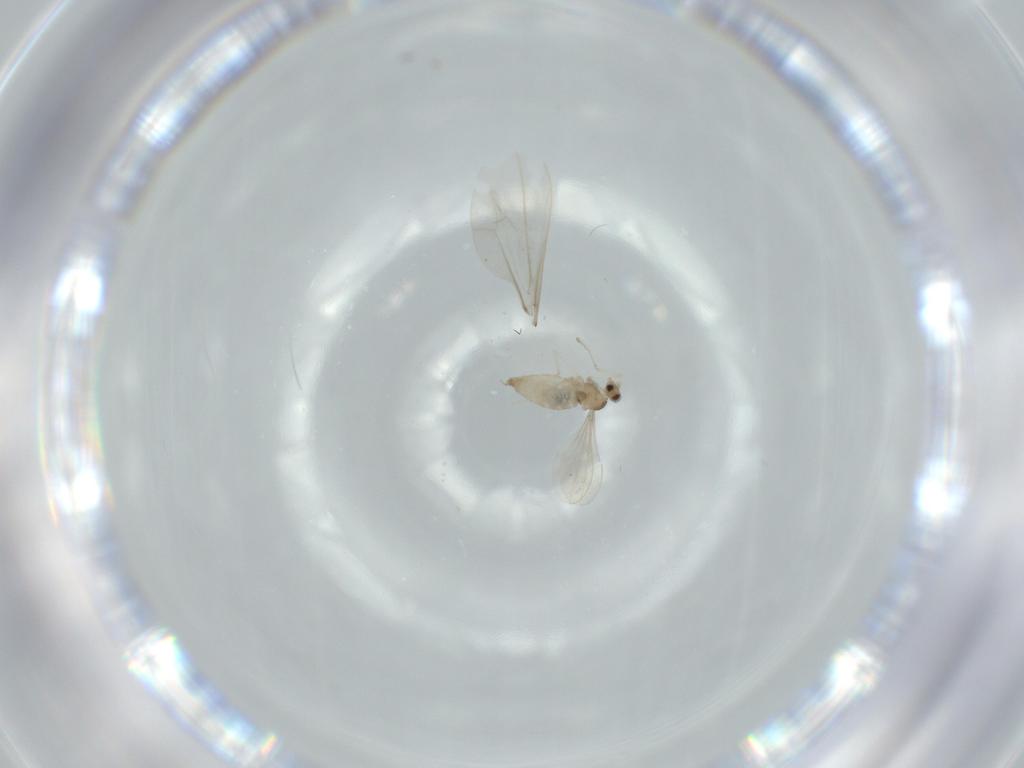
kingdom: Animalia
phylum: Arthropoda
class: Insecta
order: Diptera
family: Cecidomyiidae
